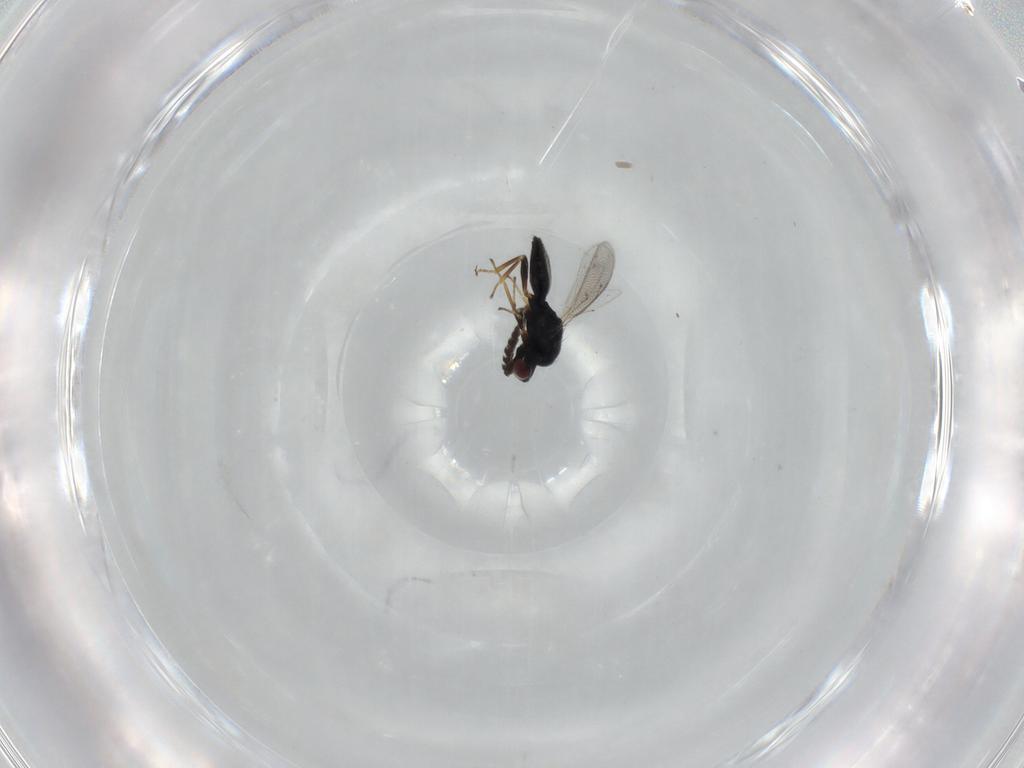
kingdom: Animalia
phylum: Arthropoda
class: Insecta
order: Hymenoptera
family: Eulophidae
